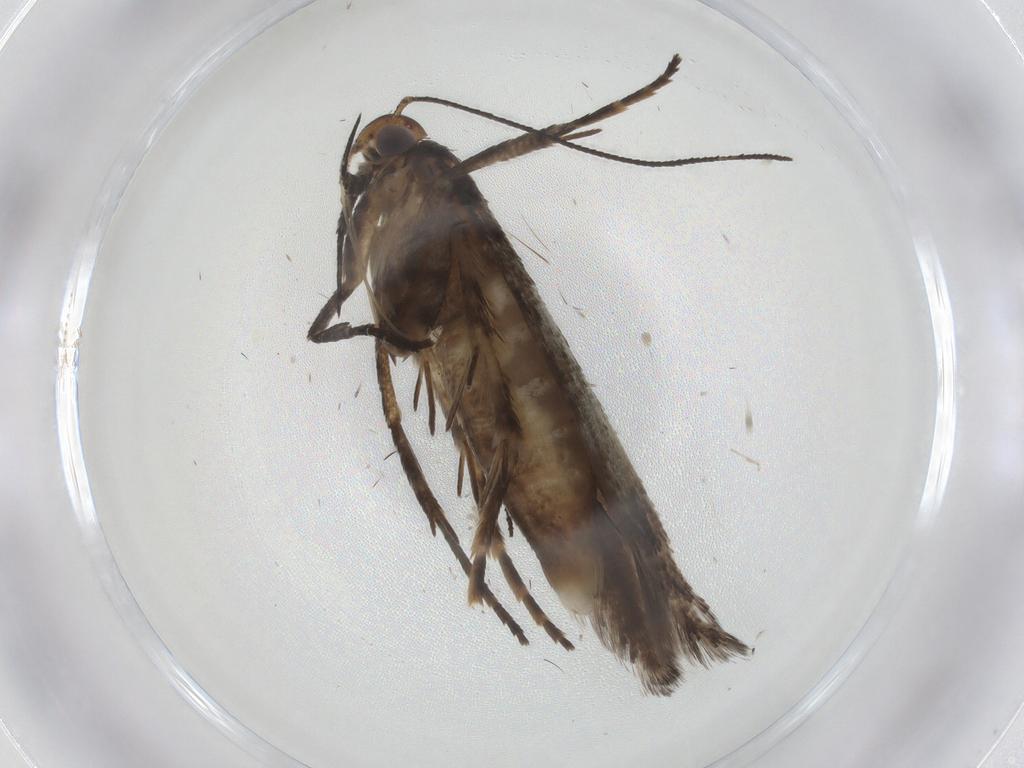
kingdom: Animalia
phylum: Arthropoda
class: Insecta
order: Lepidoptera
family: Gelechiidae
